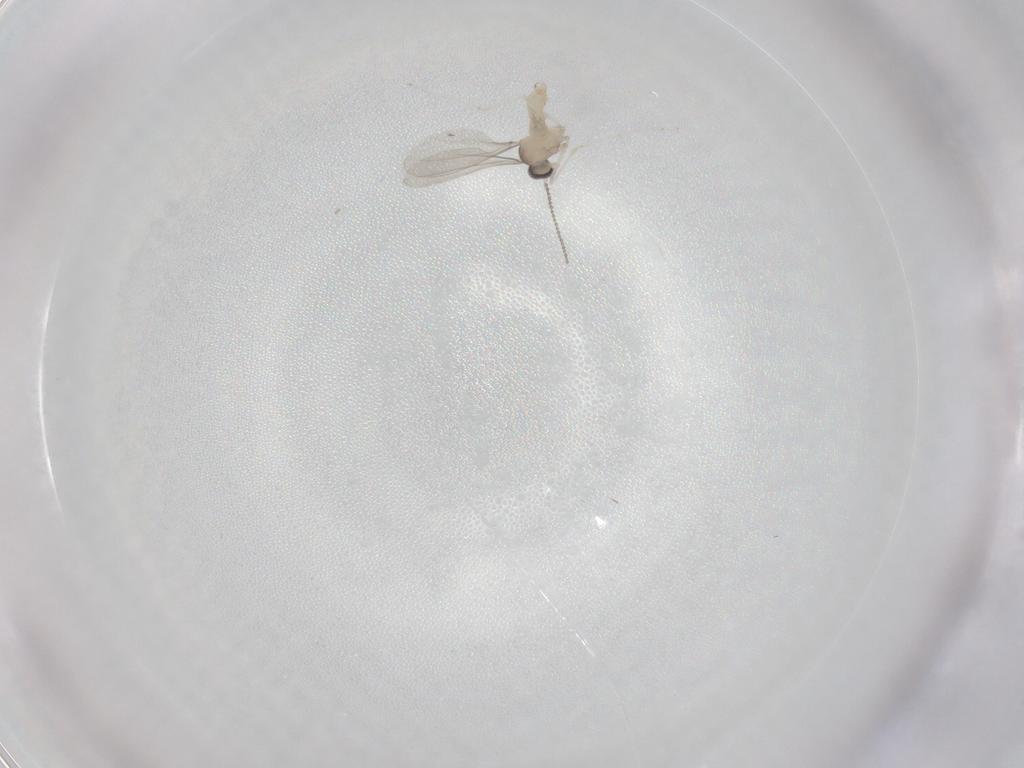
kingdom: Animalia
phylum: Arthropoda
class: Insecta
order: Diptera
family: Cecidomyiidae
